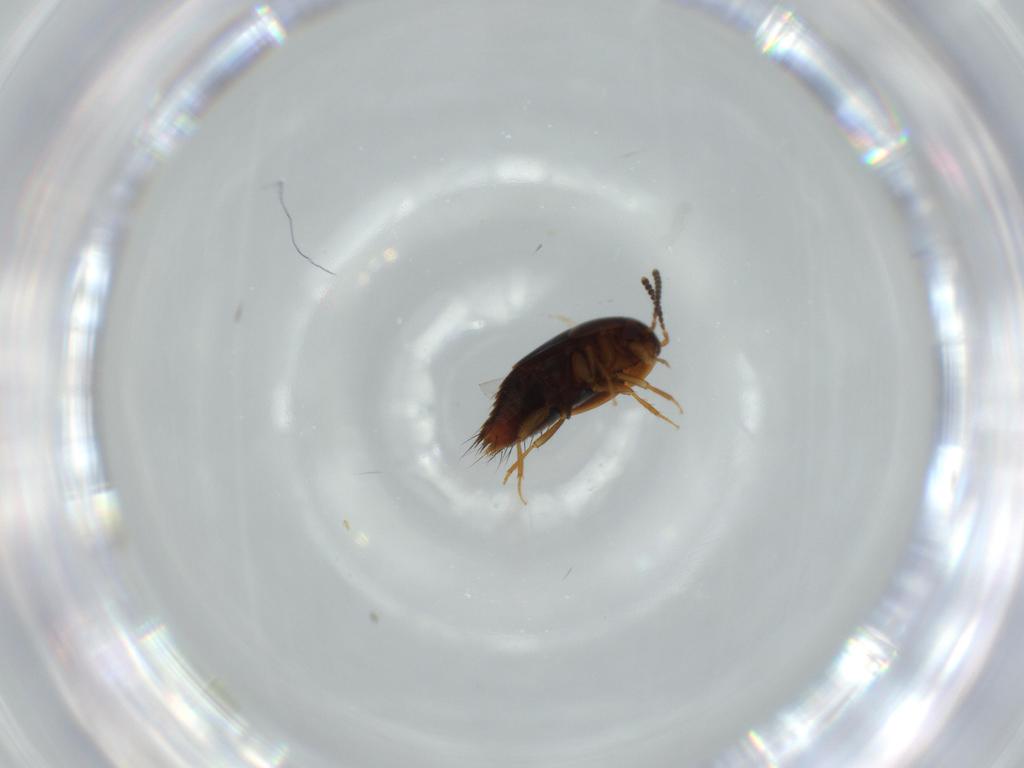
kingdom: Animalia
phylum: Arthropoda
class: Insecta
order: Coleoptera
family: Staphylinidae
